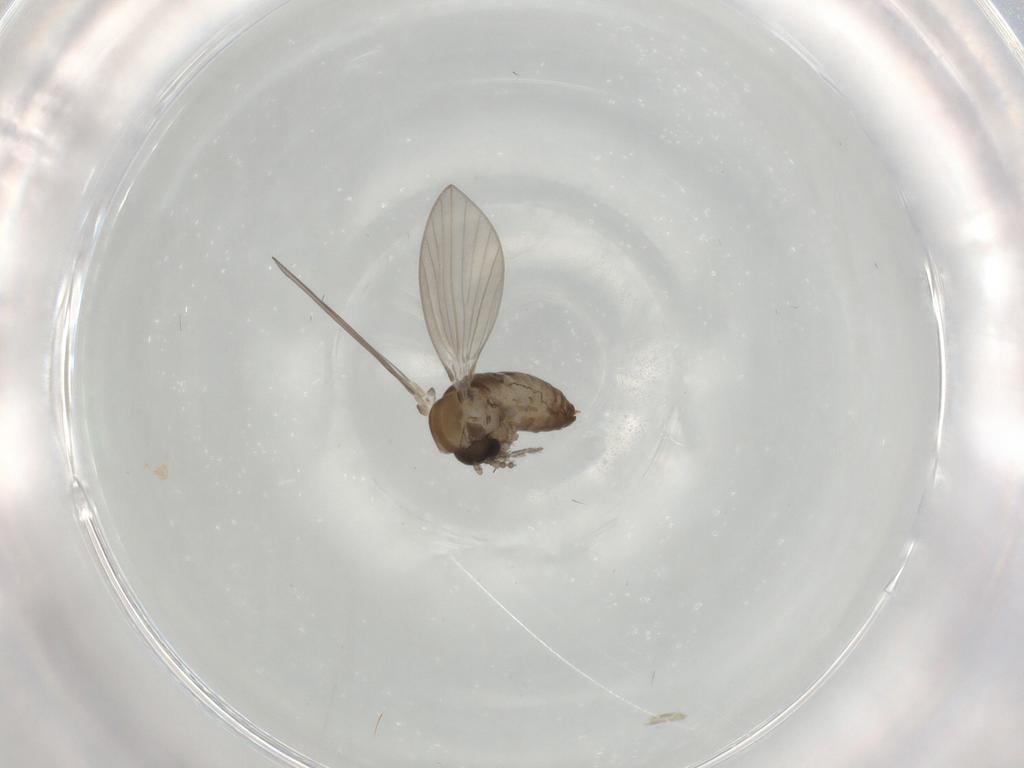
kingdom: Animalia
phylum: Arthropoda
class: Insecta
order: Diptera
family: Psychodidae
